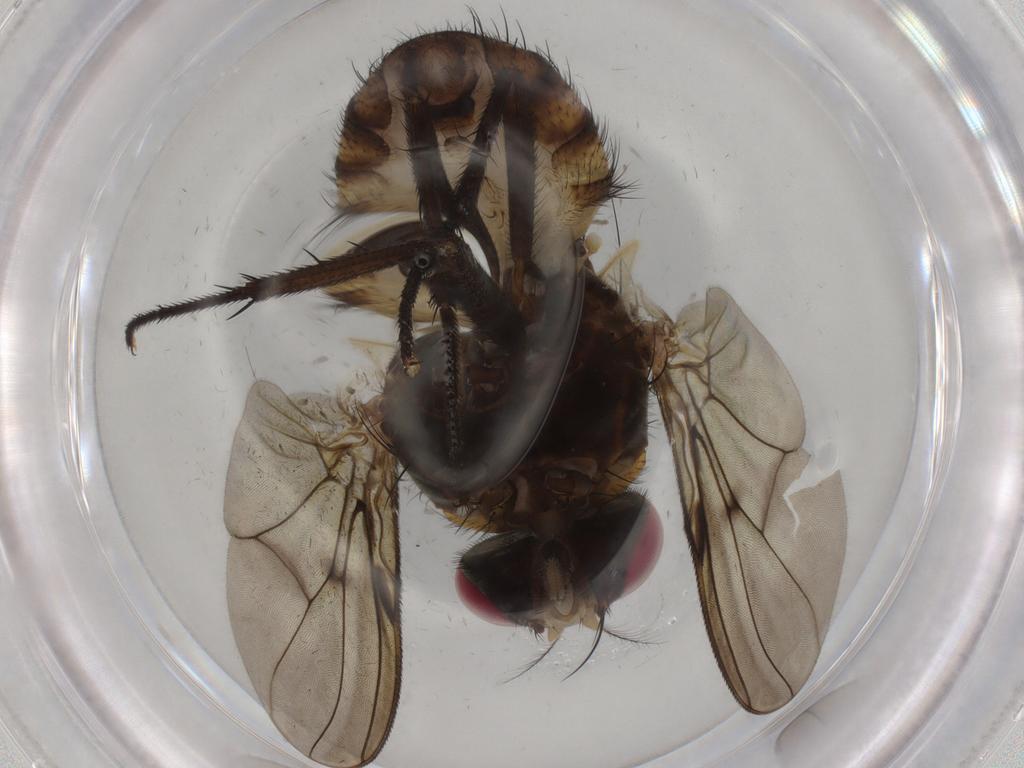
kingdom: Animalia
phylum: Arthropoda
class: Insecta
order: Diptera
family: Muscidae
